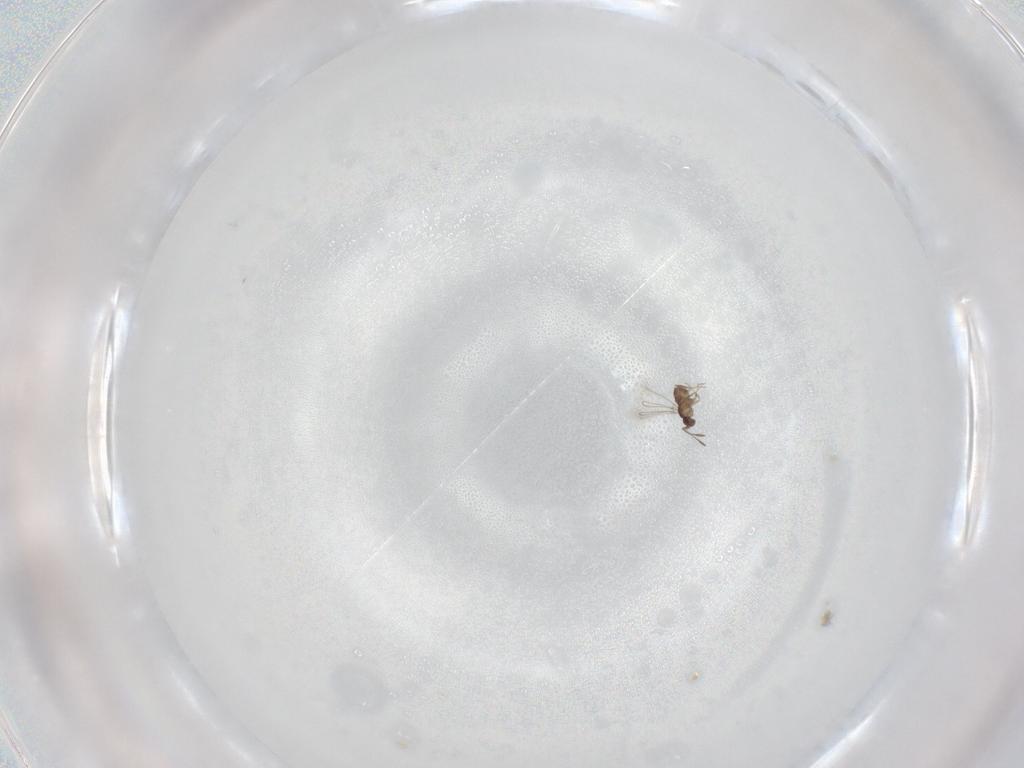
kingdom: Animalia
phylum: Arthropoda
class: Insecta
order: Hymenoptera
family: Mymaridae
